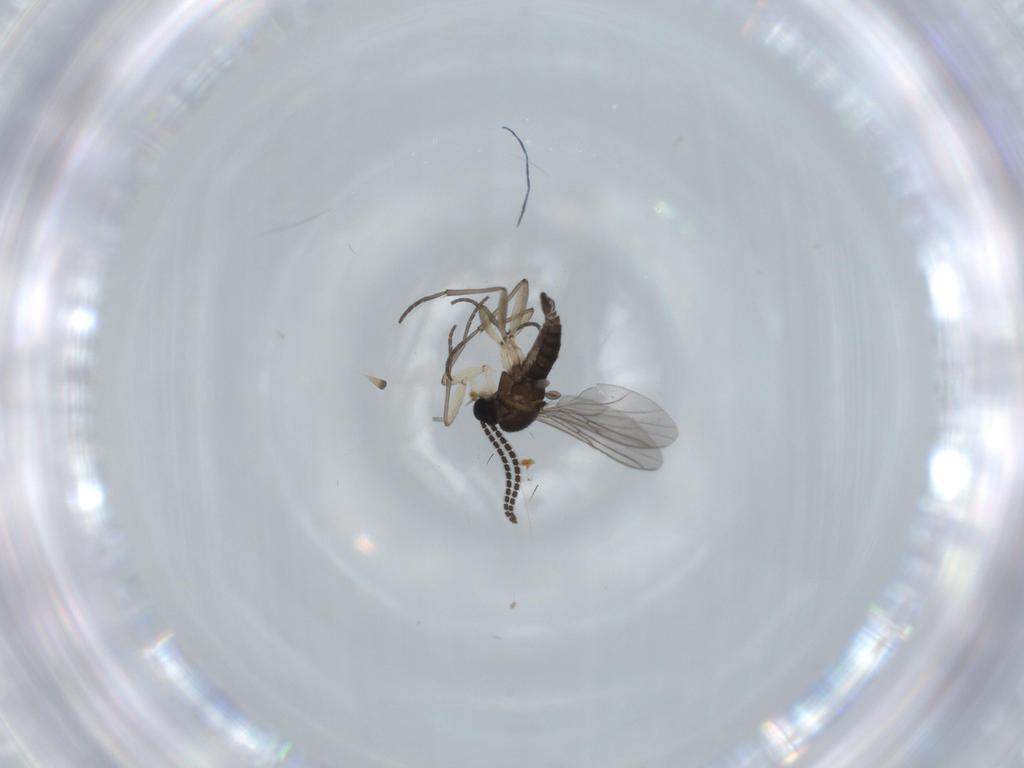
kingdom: Animalia
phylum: Arthropoda
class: Insecta
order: Diptera
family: Sciaridae
